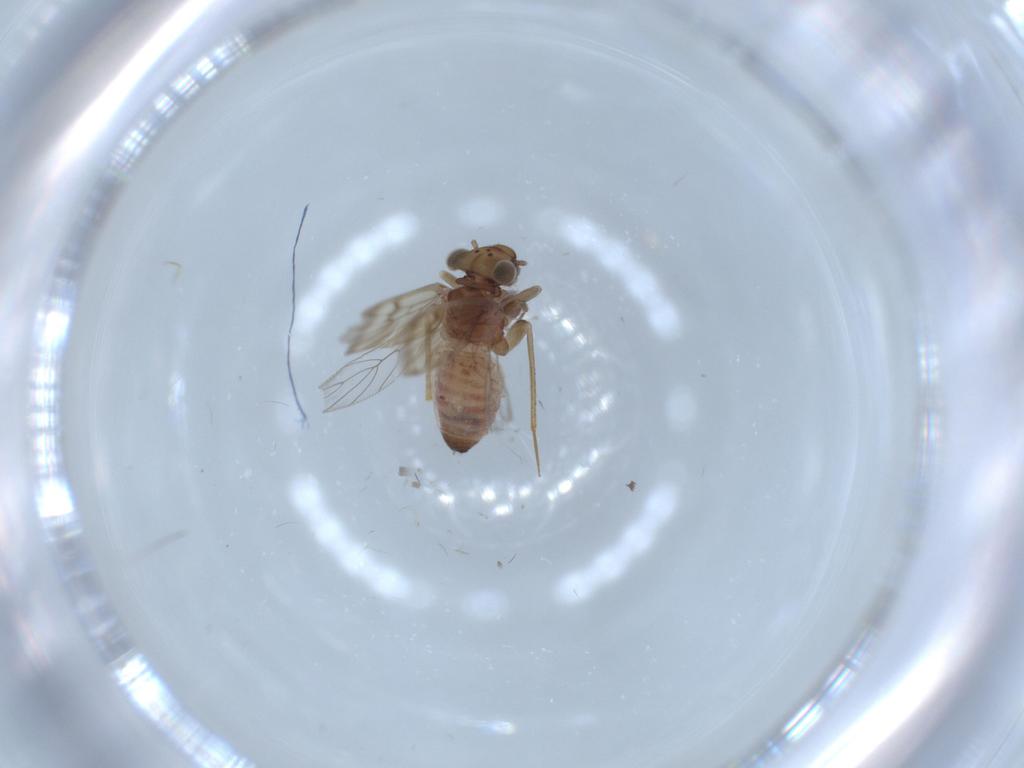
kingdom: Animalia
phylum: Arthropoda
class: Insecta
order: Psocodea
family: Lepidopsocidae
